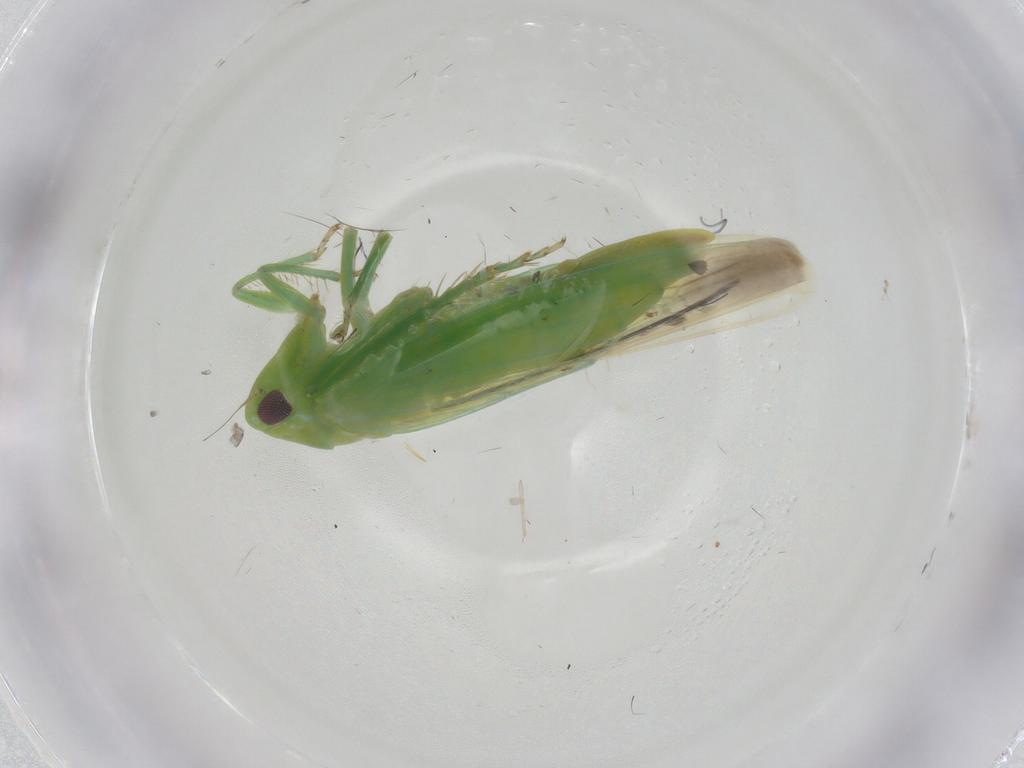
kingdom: Animalia
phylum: Arthropoda
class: Insecta
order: Hemiptera
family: Cicadellidae
